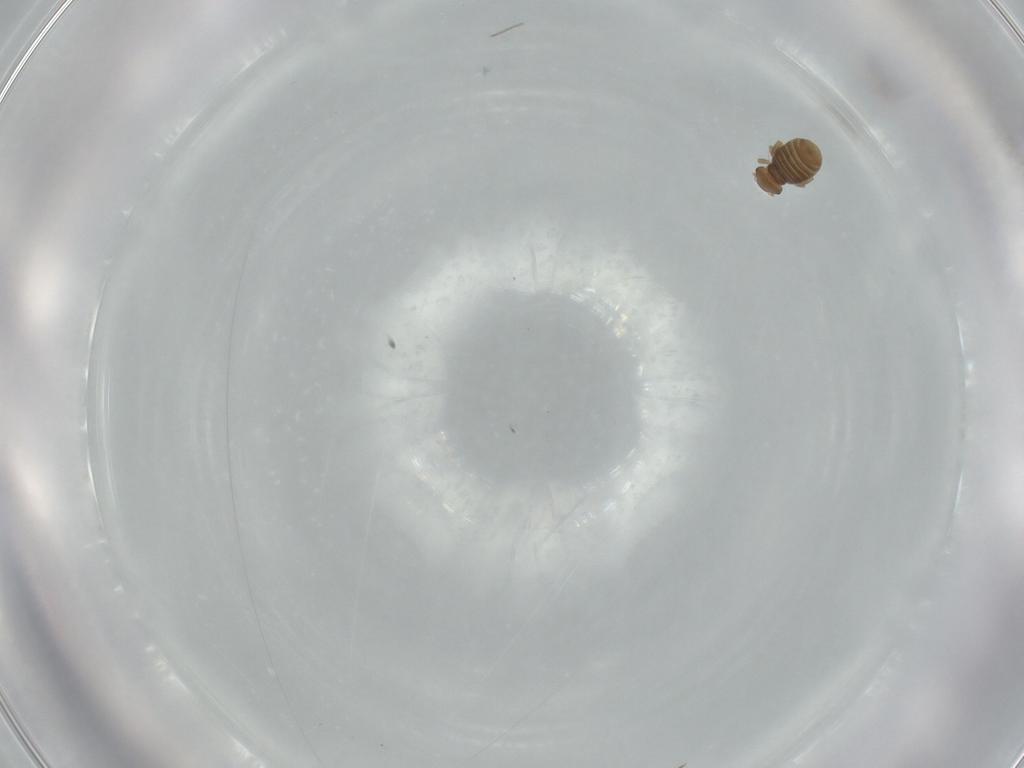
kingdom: Animalia
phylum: Arthropoda
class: Insecta
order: Psocodea
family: Liposcelididae
